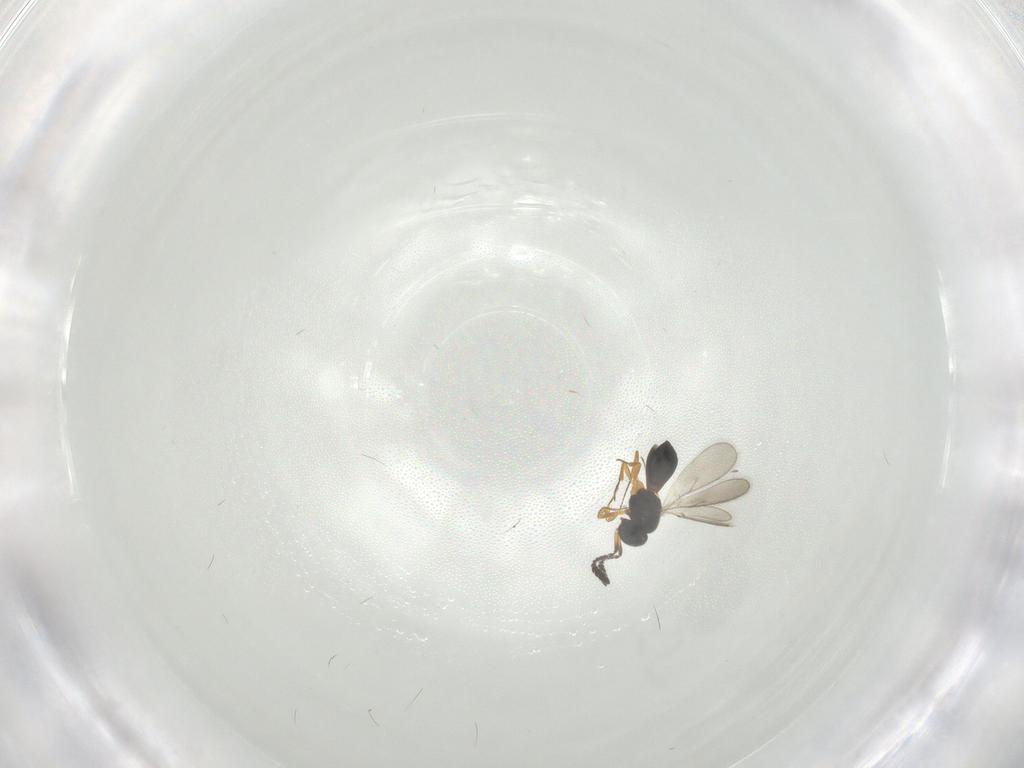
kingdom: Animalia
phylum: Arthropoda
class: Insecta
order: Hymenoptera
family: Scelionidae
